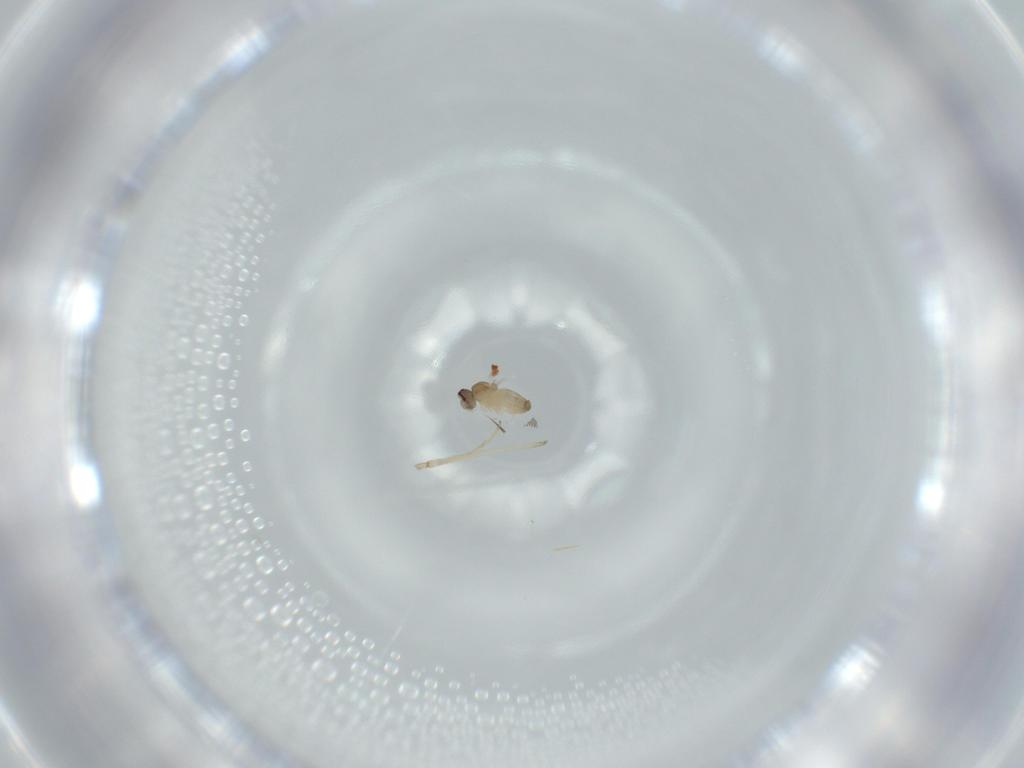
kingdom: Animalia
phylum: Arthropoda
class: Insecta
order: Diptera
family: Cecidomyiidae
